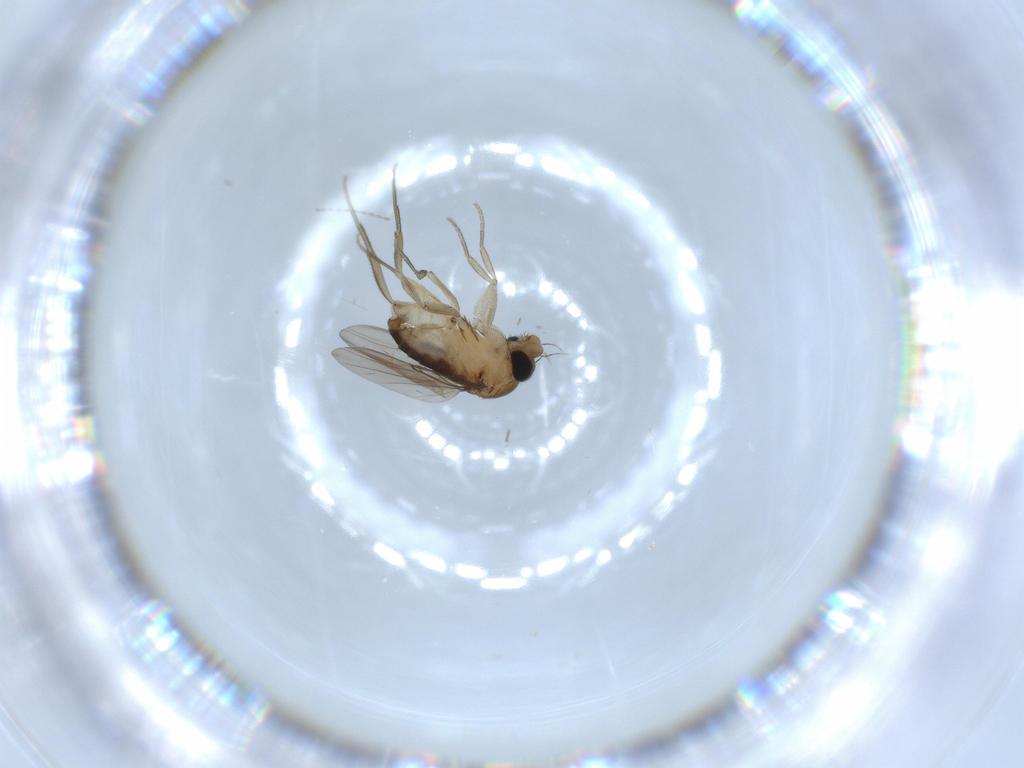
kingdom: Animalia
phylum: Arthropoda
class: Insecta
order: Diptera
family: Phoridae
